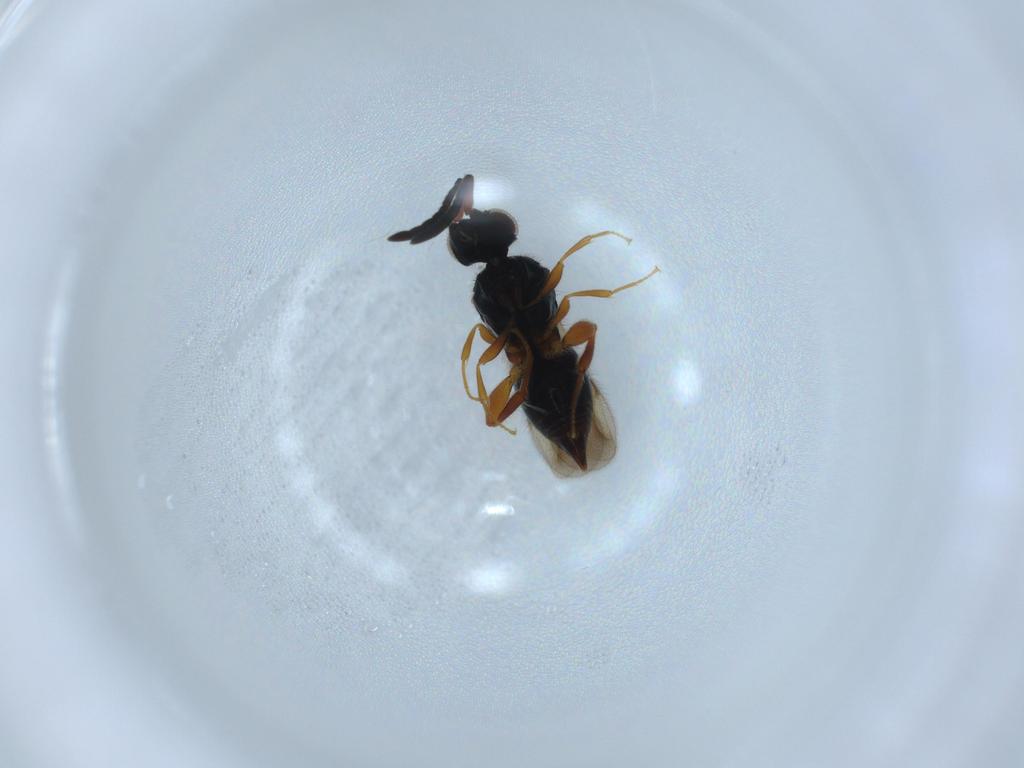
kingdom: Animalia
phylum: Arthropoda
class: Insecta
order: Hymenoptera
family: Ceraphronidae
